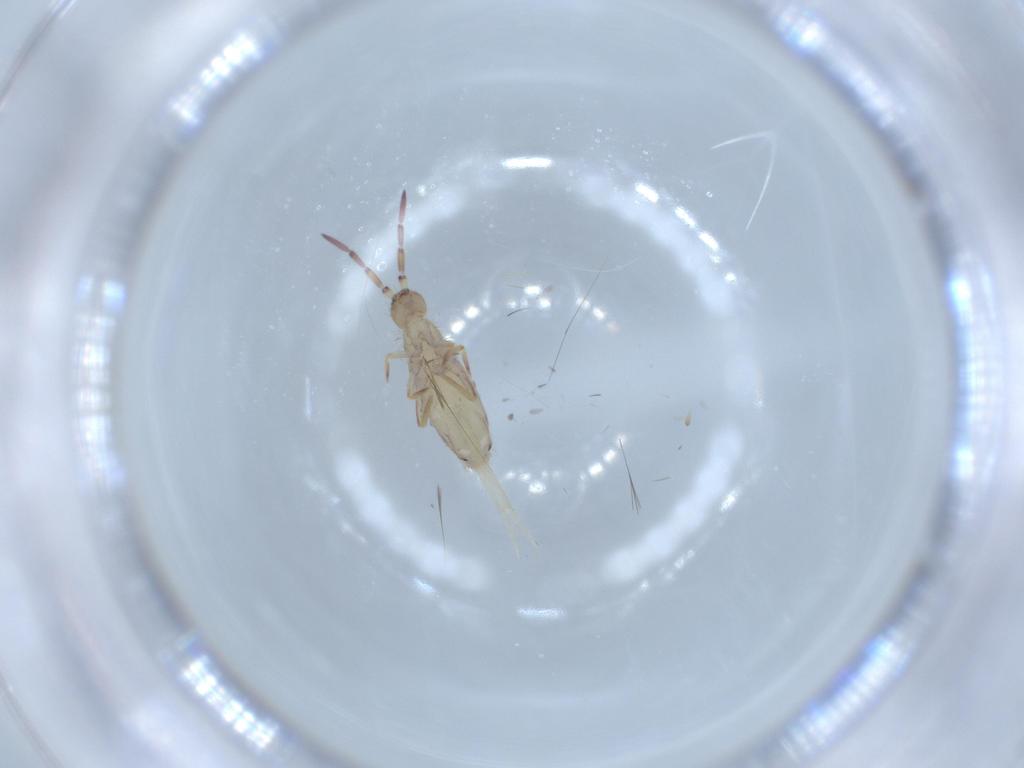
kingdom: Animalia
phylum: Arthropoda
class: Collembola
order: Entomobryomorpha
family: Entomobryidae
